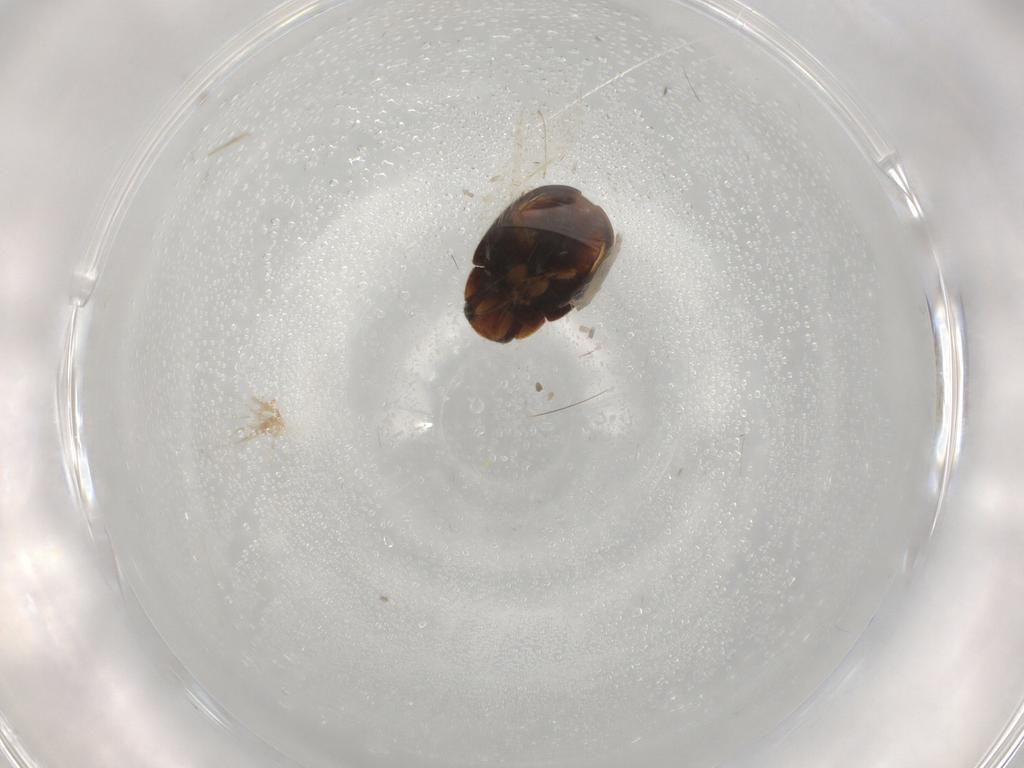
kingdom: Animalia
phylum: Arthropoda
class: Insecta
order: Coleoptera
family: Coccinellidae
